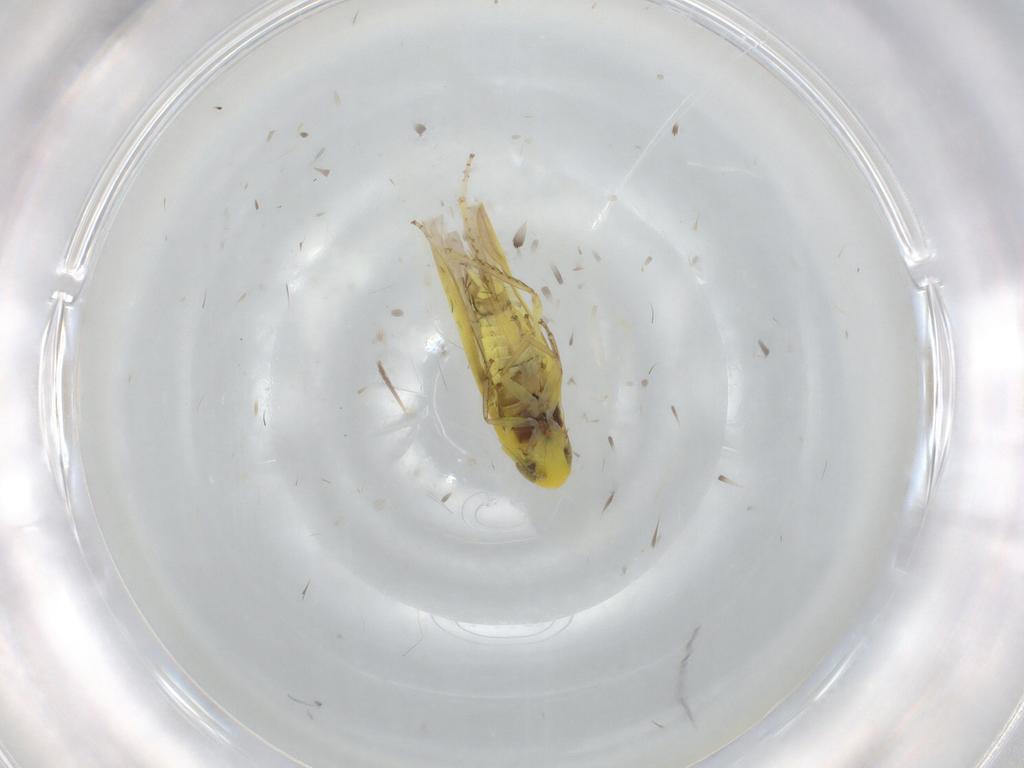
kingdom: Animalia
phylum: Arthropoda
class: Insecta
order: Hemiptera
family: Cicadellidae
